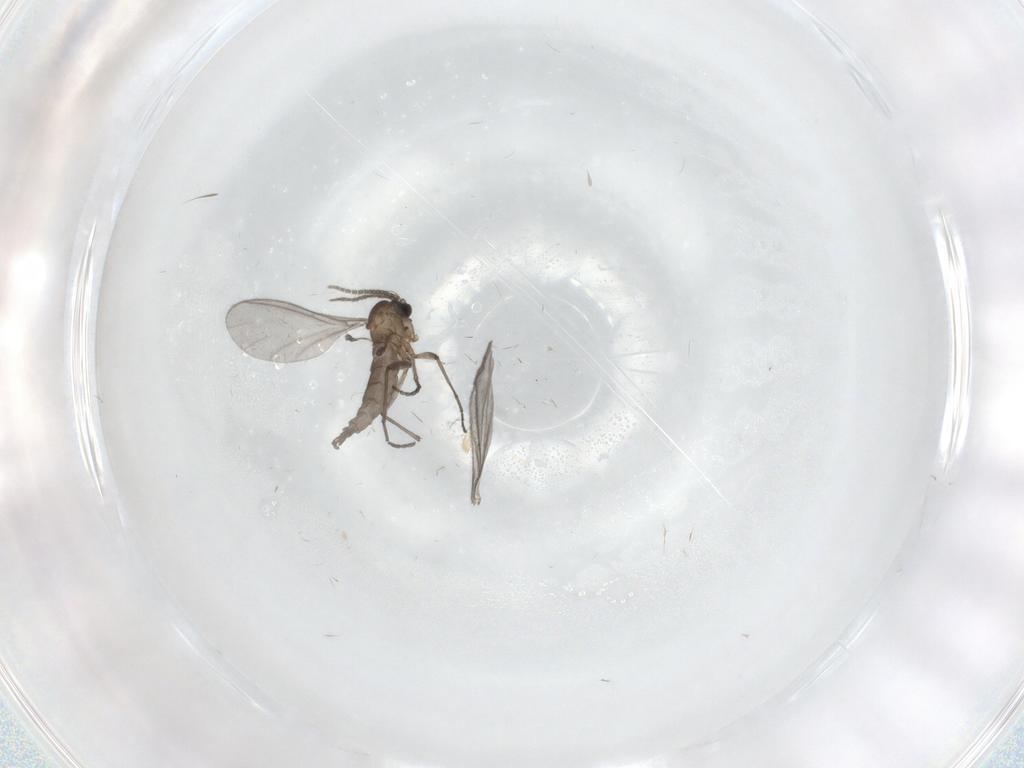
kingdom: Animalia
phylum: Arthropoda
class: Insecta
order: Diptera
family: Sciaridae
